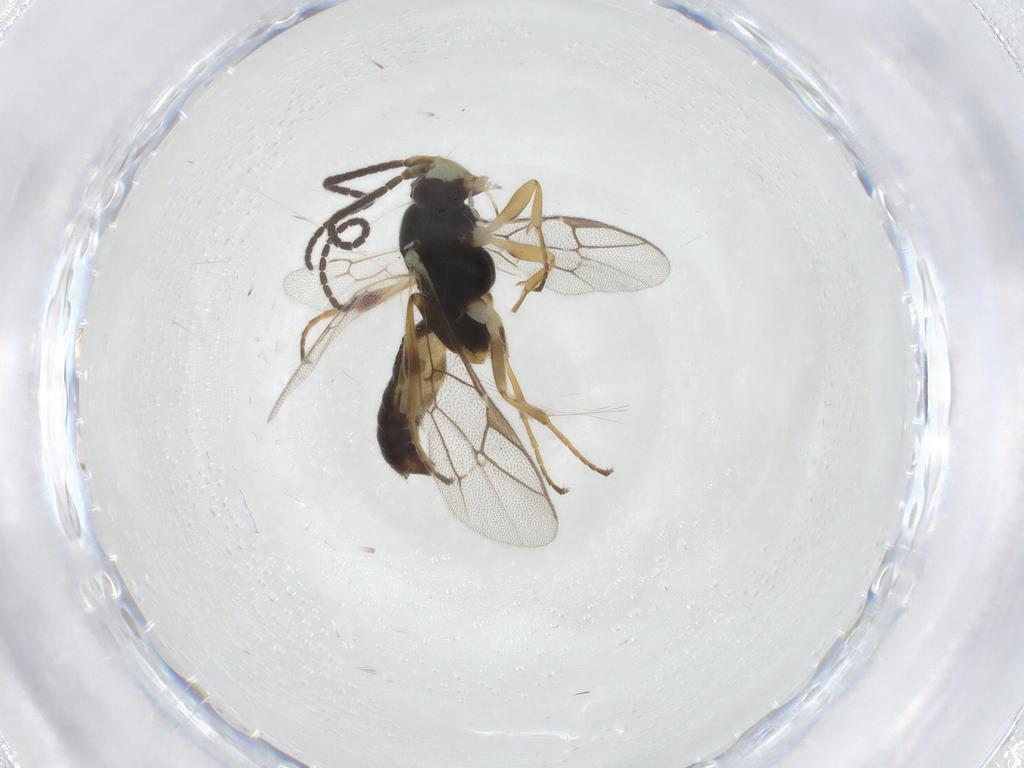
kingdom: Animalia
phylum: Arthropoda
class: Insecta
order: Hymenoptera
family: Ichneumonidae
